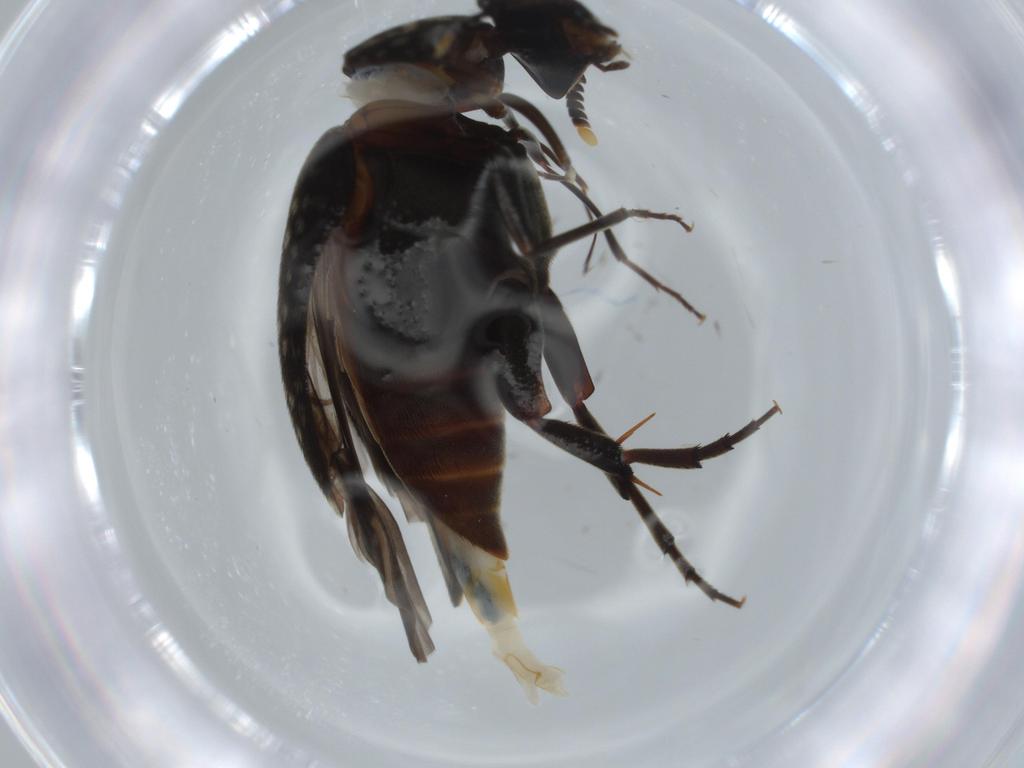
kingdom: Animalia
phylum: Arthropoda
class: Insecta
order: Coleoptera
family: Mordellidae
